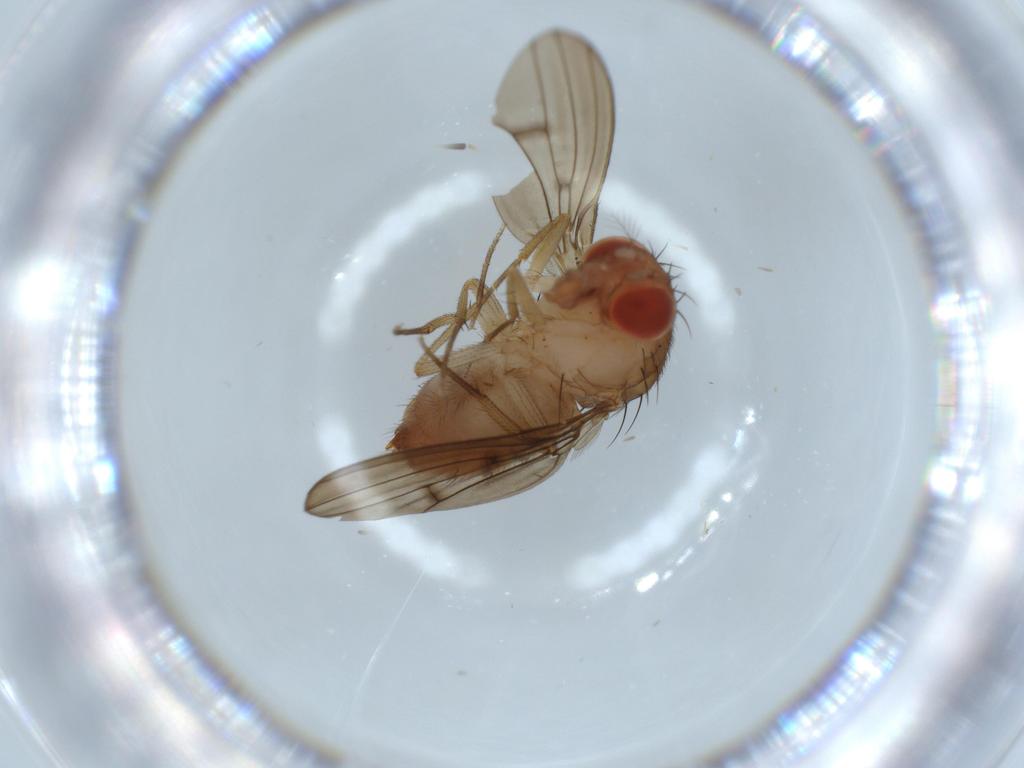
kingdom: Animalia
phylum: Arthropoda
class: Insecta
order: Diptera
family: Drosophilidae
